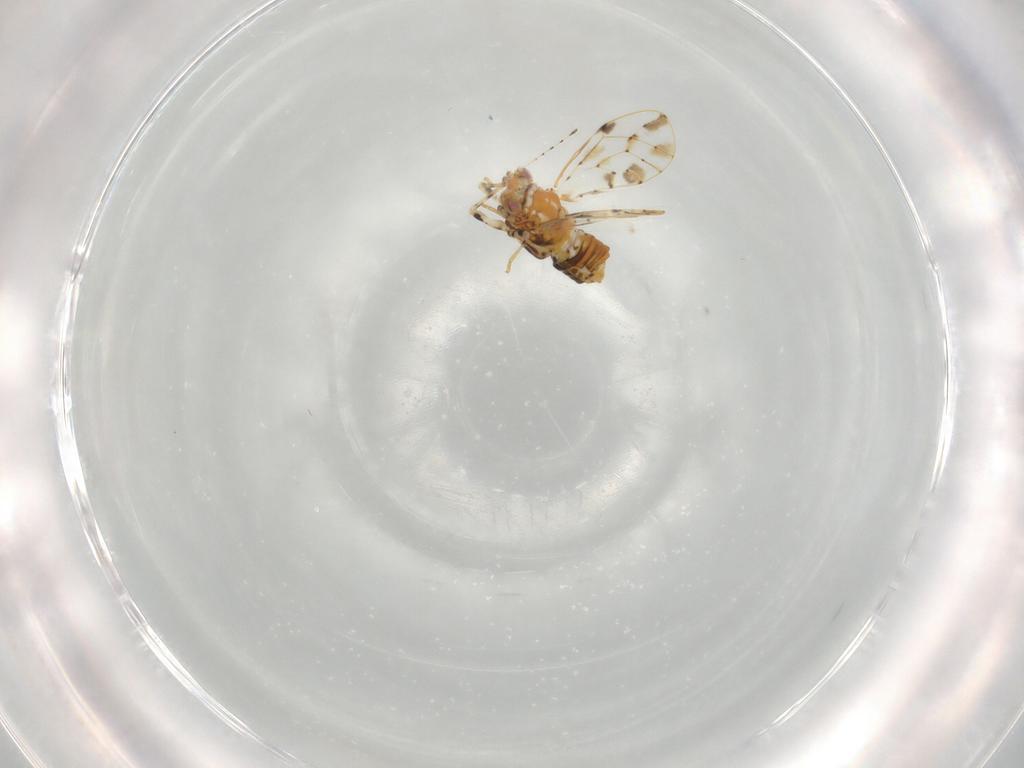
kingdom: Animalia
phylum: Arthropoda
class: Insecta
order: Hemiptera
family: Psylloidea_incertae_sedis
